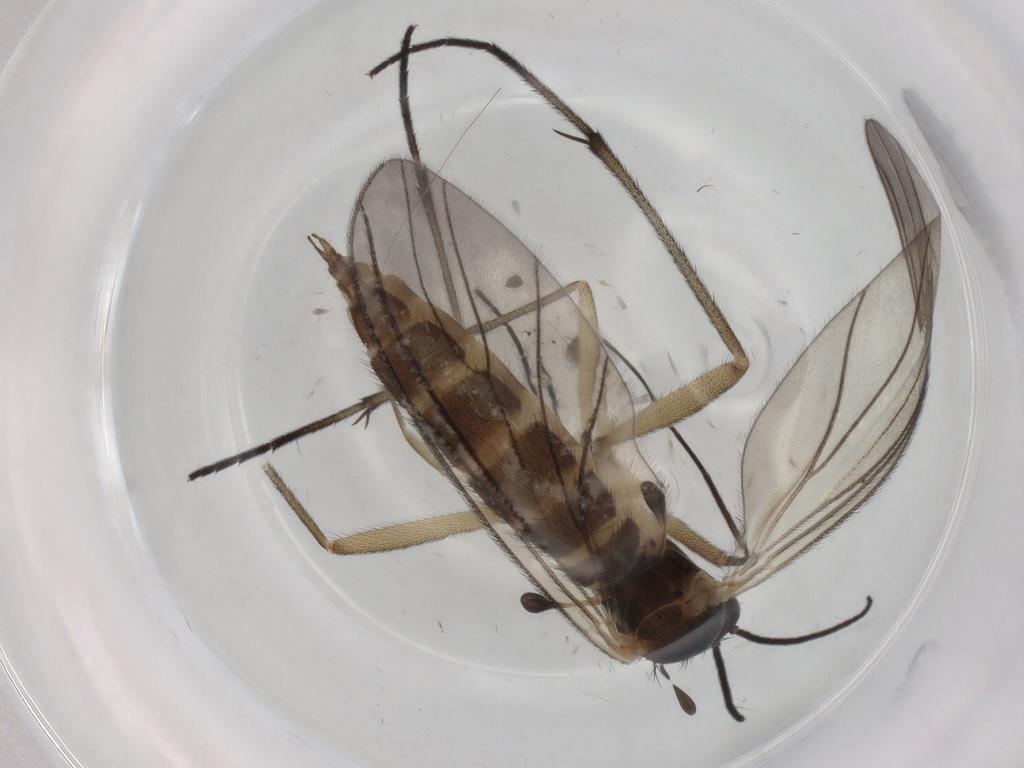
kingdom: Animalia
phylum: Arthropoda
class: Insecta
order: Diptera
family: Sciaridae
